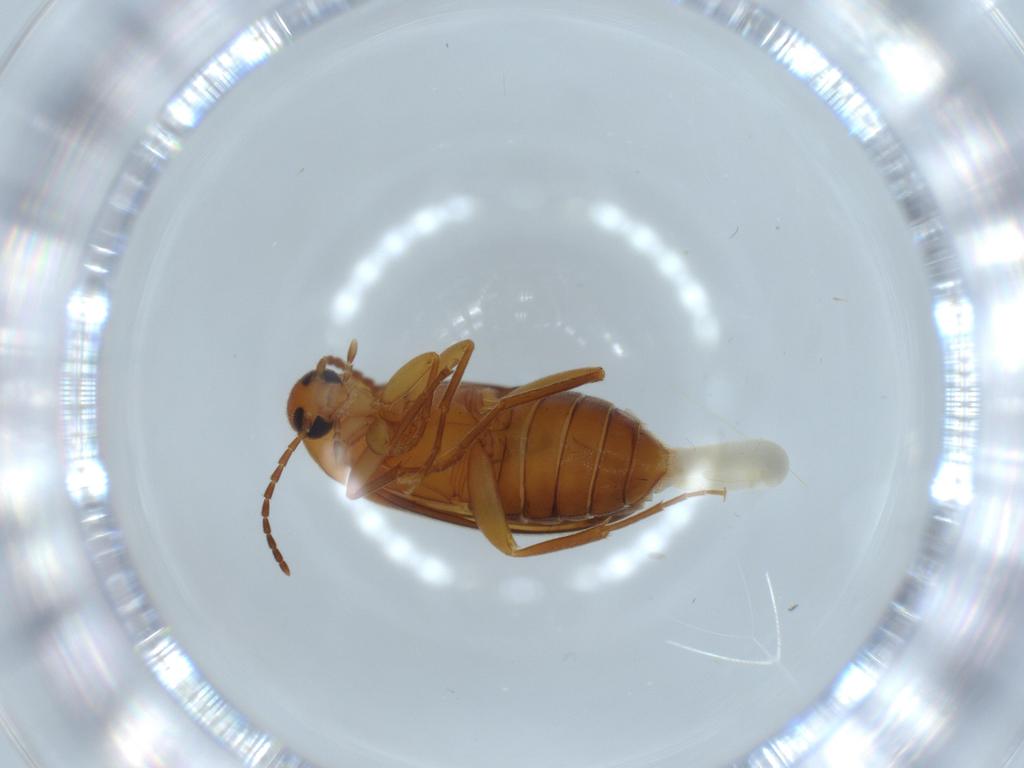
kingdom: Animalia
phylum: Arthropoda
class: Insecta
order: Coleoptera
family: Scraptiidae
